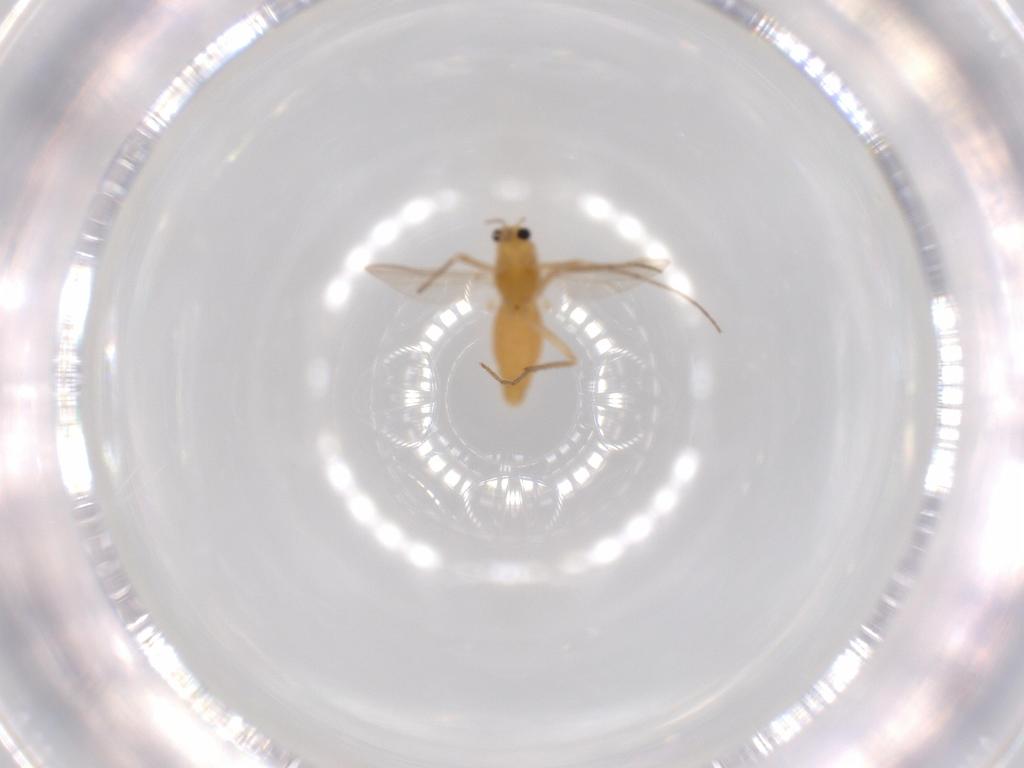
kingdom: Animalia
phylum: Arthropoda
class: Insecta
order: Diptera
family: Chironomidae
